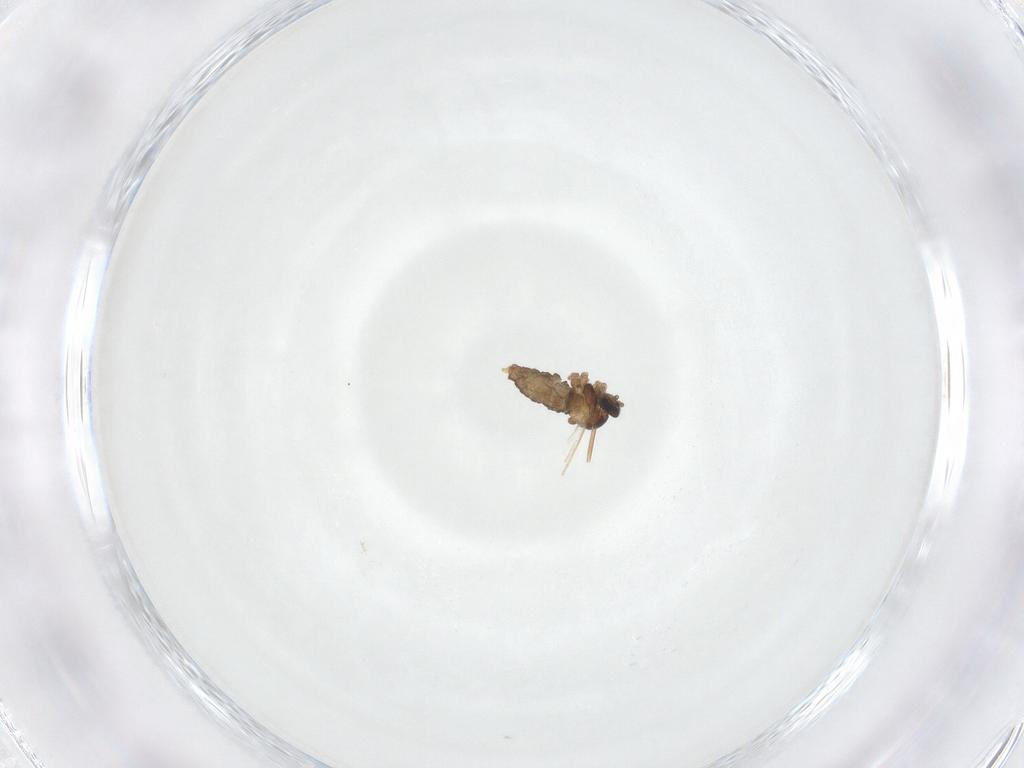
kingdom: Animalia
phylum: Arthropoda
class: Insecta
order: Diptera
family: Cecidomyiidae
